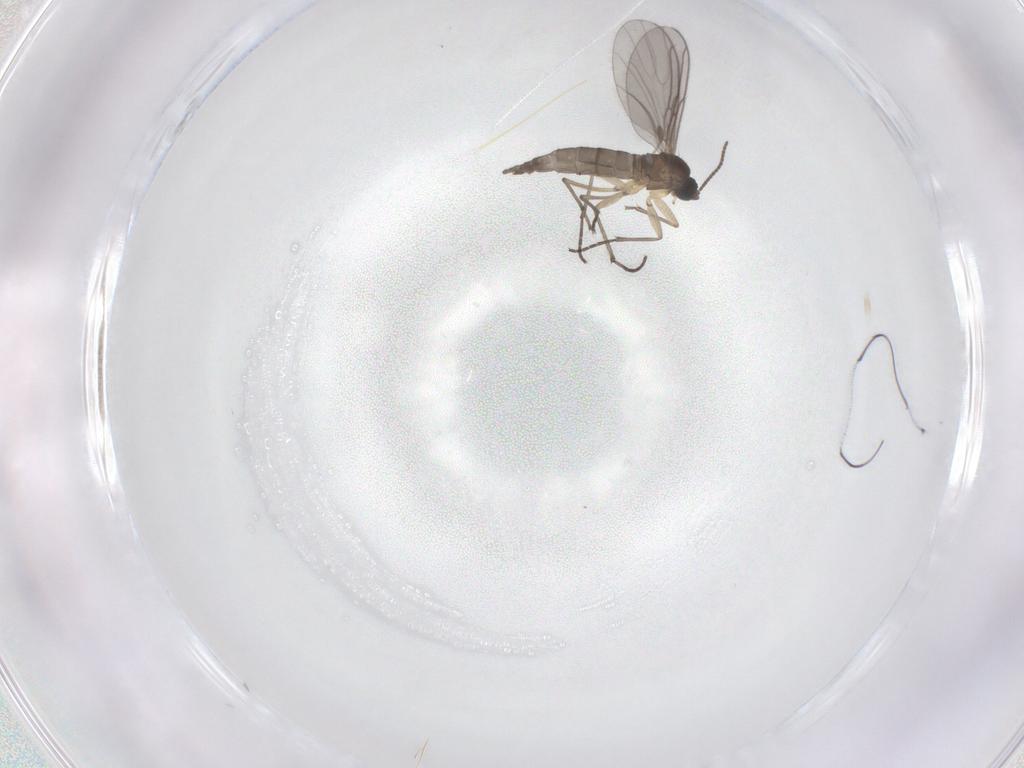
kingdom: Animalia
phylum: Arthropoda
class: Insecta
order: Diptera
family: Sciaridae
